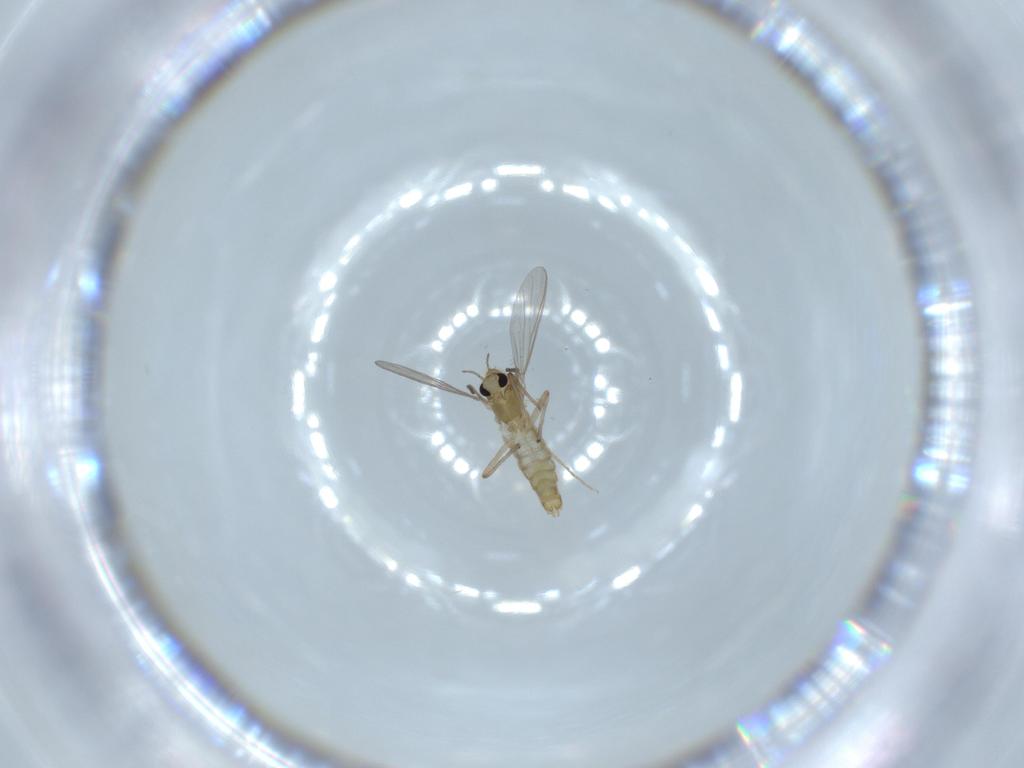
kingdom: Animalia
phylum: Arthropoda
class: Insecta
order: Diptera
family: Chironomidae
